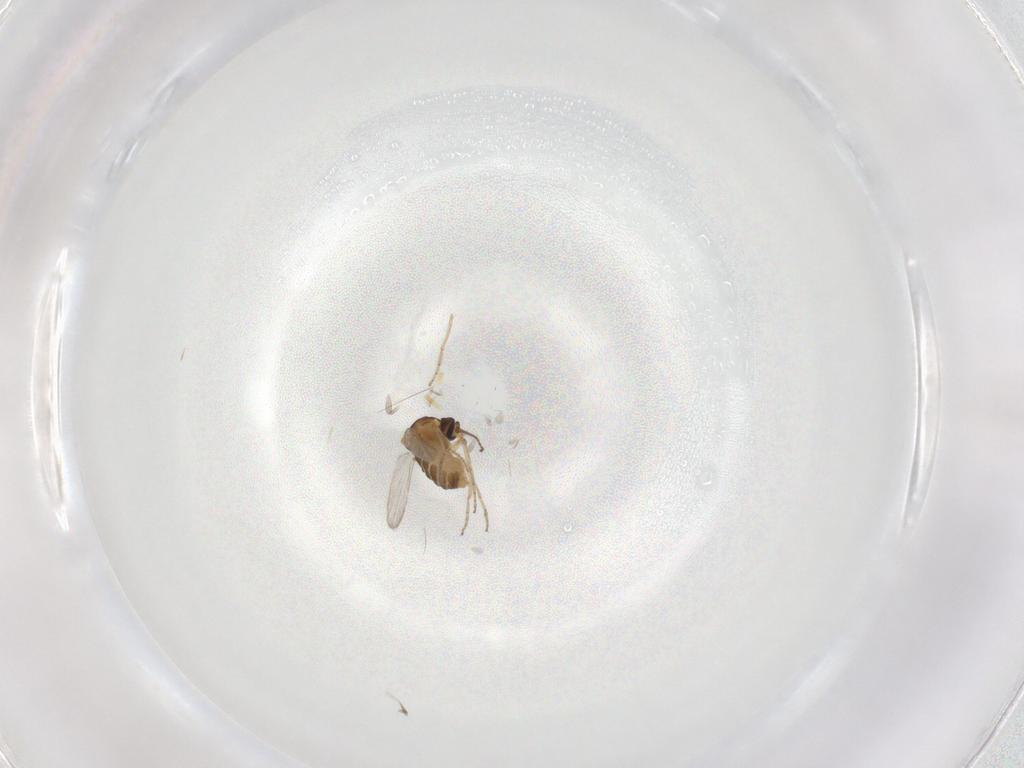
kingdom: Animalia
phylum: Arthropoda
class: Insecta
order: Diptera
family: Ceratopogonidae
